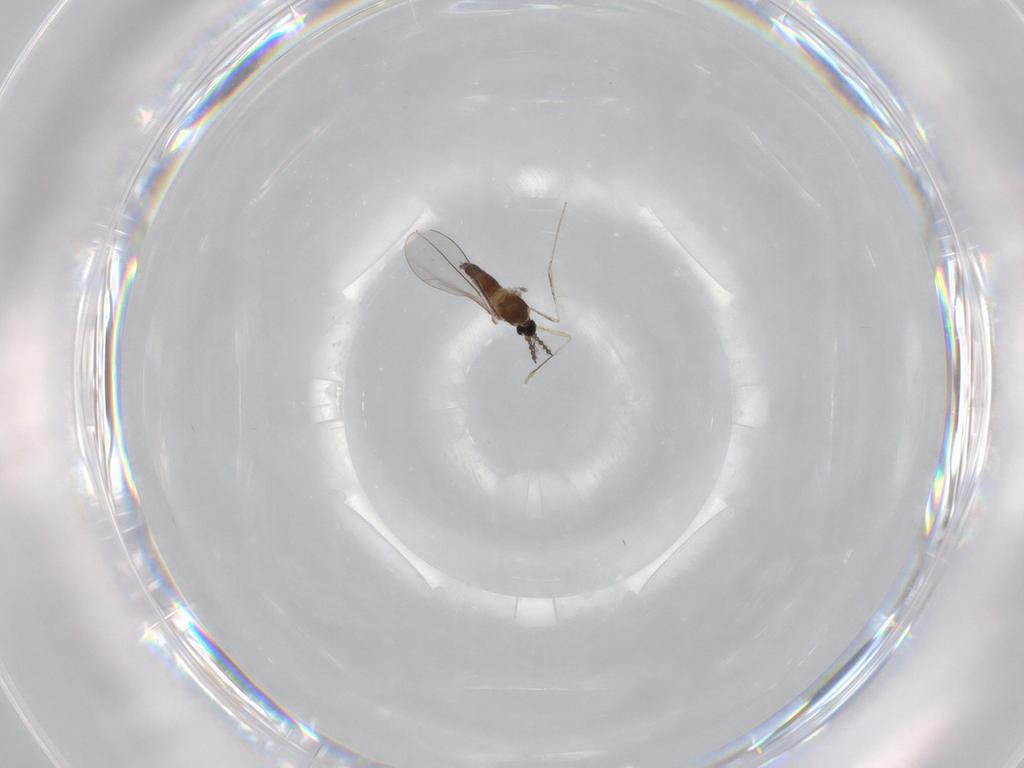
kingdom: Animalia
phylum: Arthropoda
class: Insecta
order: Diptera
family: Cecidomyiidae
